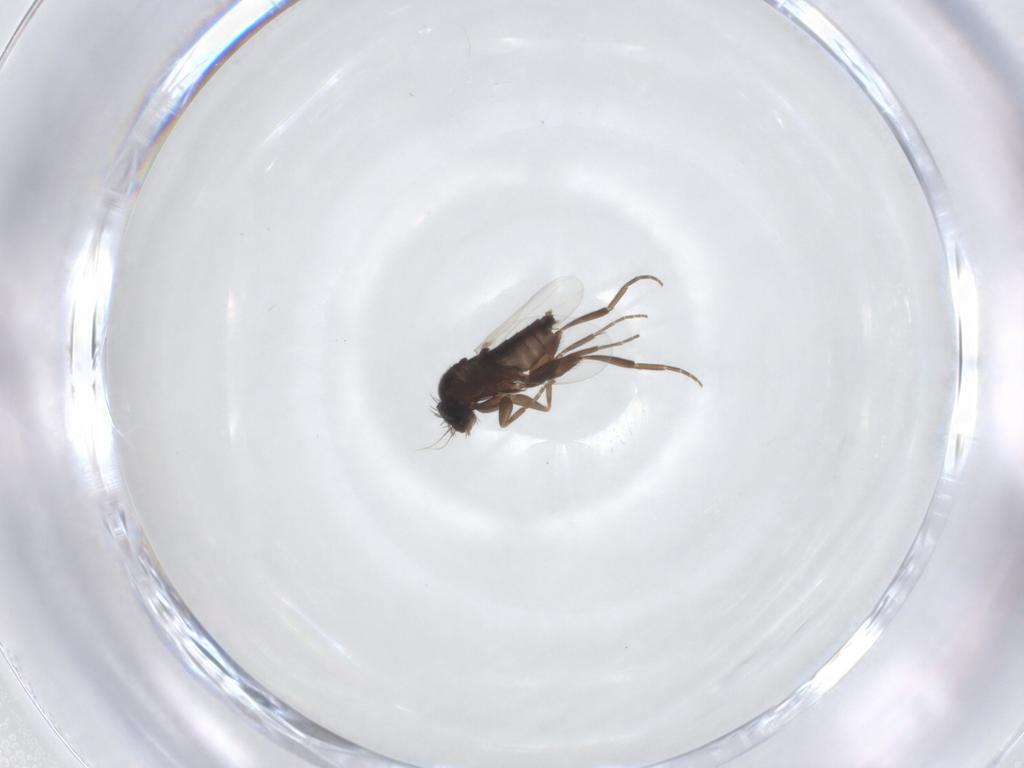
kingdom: Animalia
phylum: Arthropoda
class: Insecta
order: Diptera
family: Phoridae
